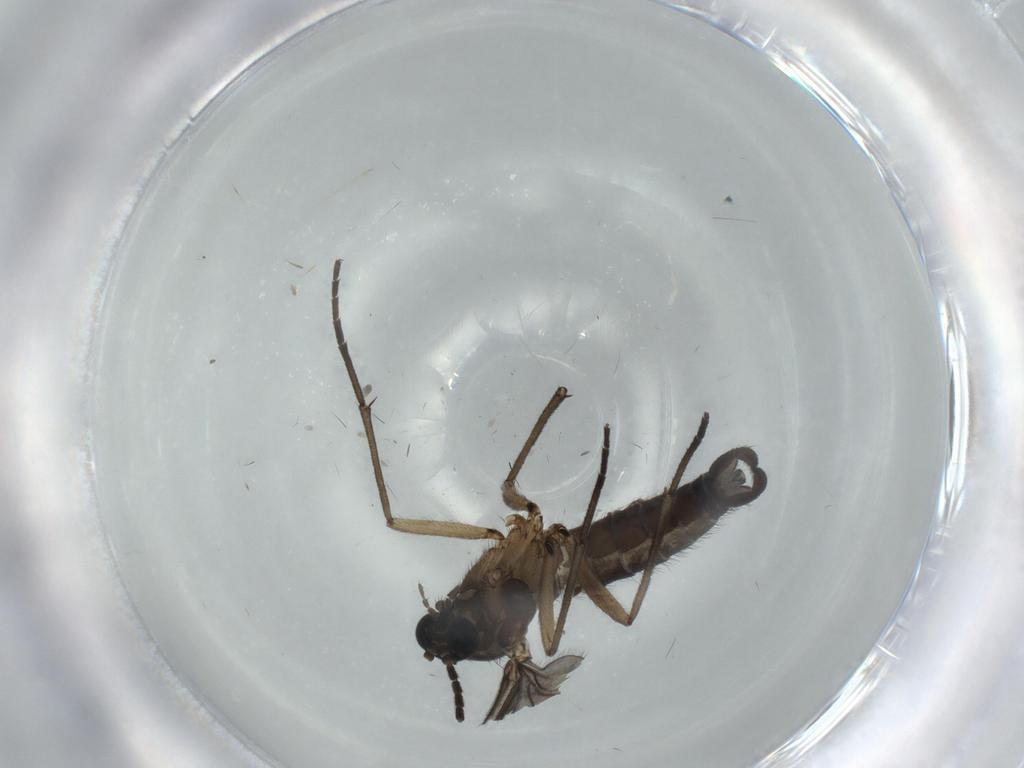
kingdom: Animalia
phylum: Arthropoda
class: Insecta
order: Diptera
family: Sciaridae
